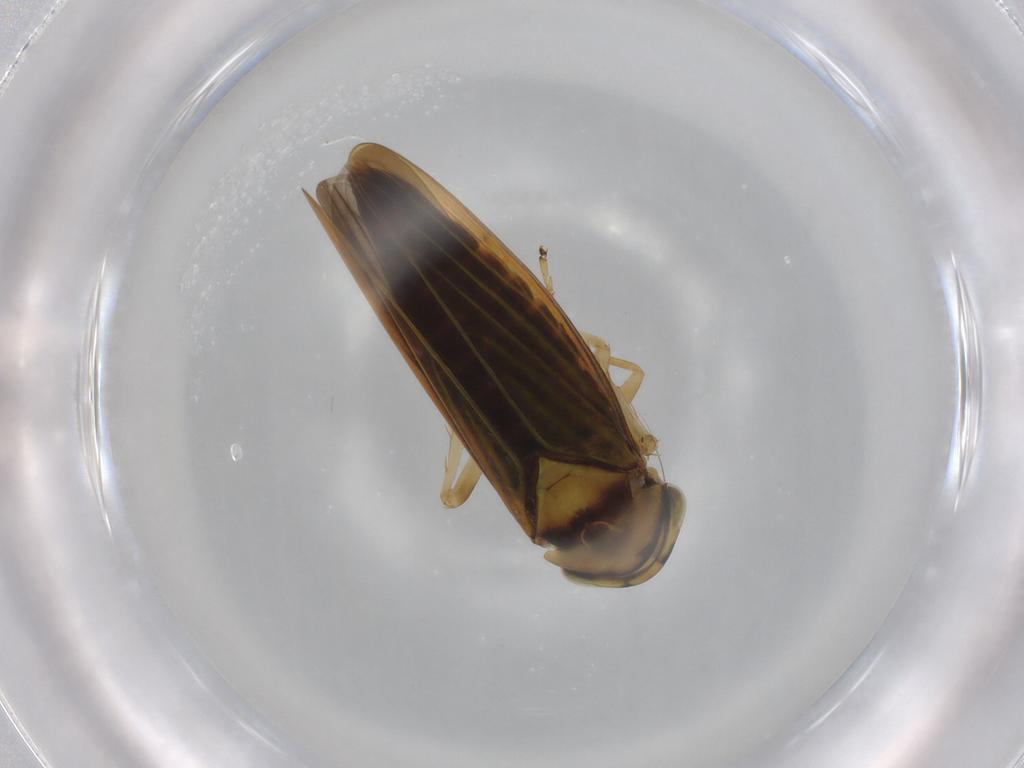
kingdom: Animalia
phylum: Arthropoda
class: Insecta
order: Hemiptera
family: Cicadellidae
